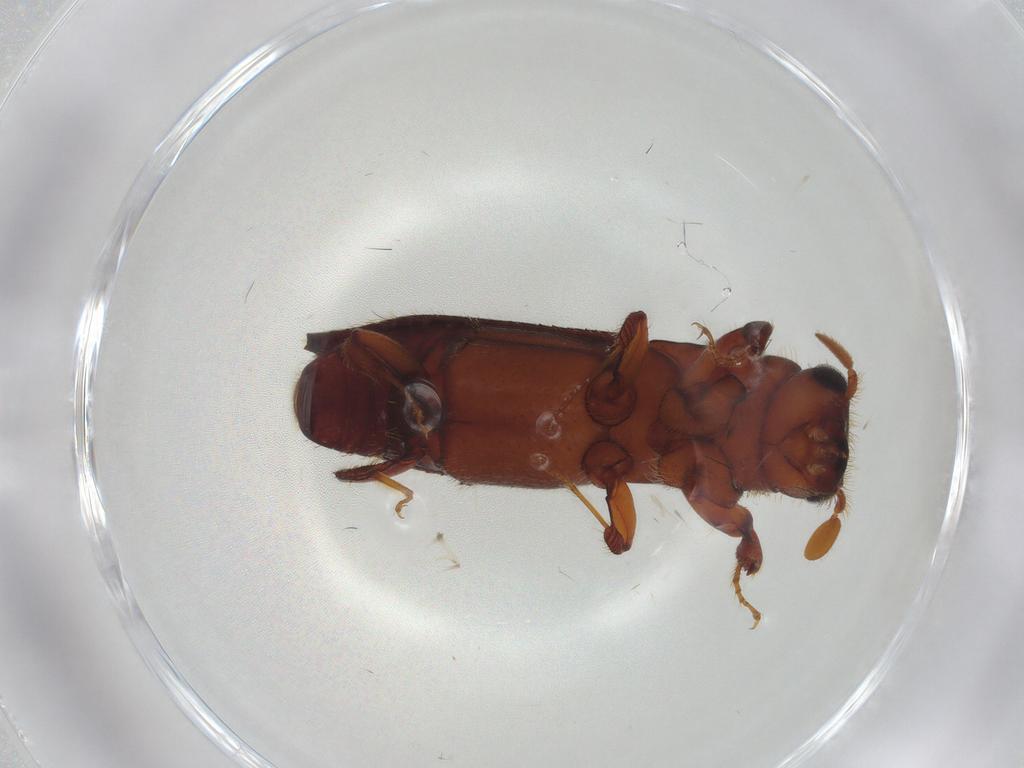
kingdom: Animalia
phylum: Arthropoda
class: Insecta
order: Coleoptera
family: Curculionidae
